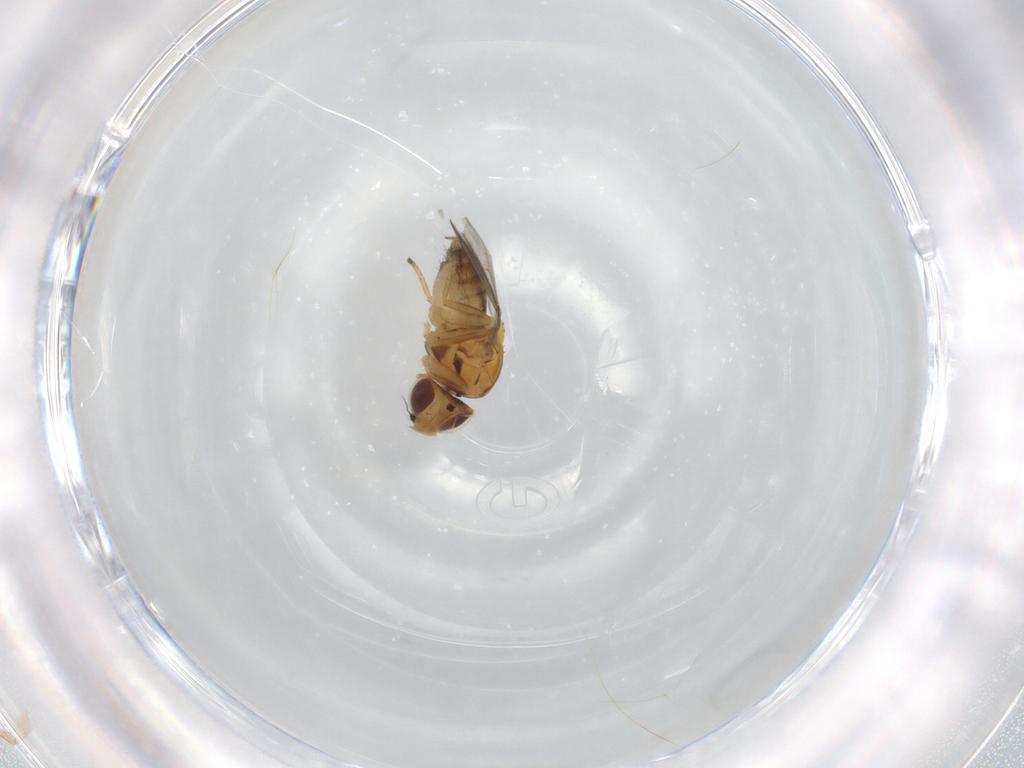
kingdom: Animalia
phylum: Arthropoda
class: Insecta
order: Diptera
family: Chloropidae
